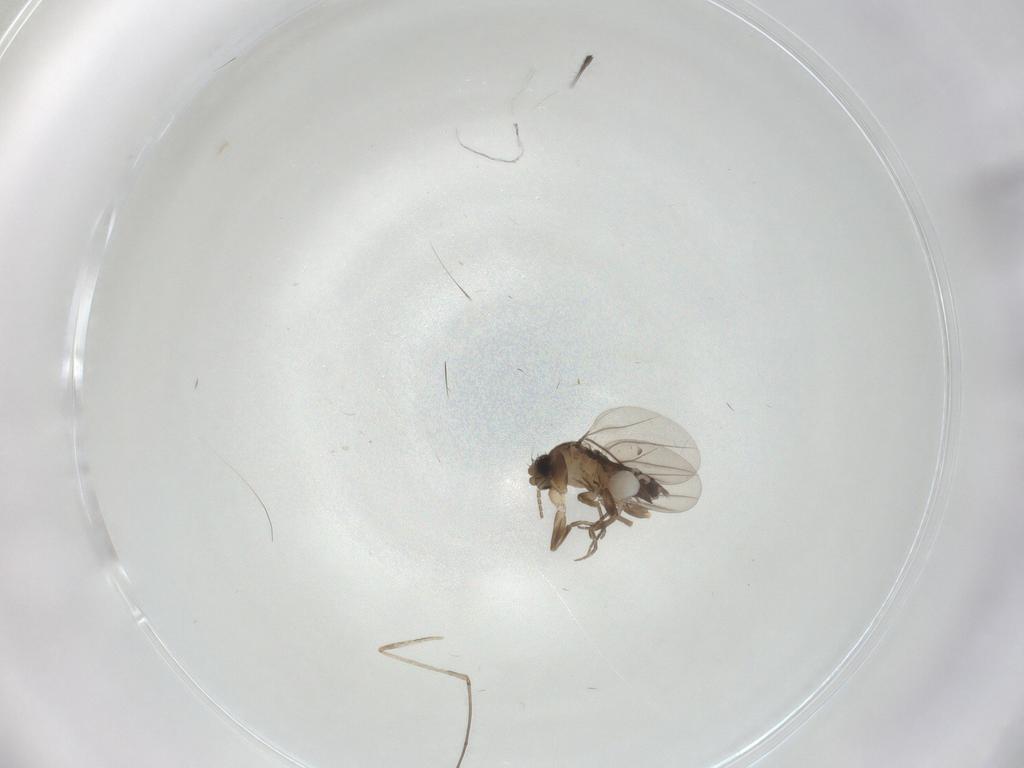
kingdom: Animalia
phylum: Arthropoda
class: Insecta
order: Diptera
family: Cecidomyiidae
